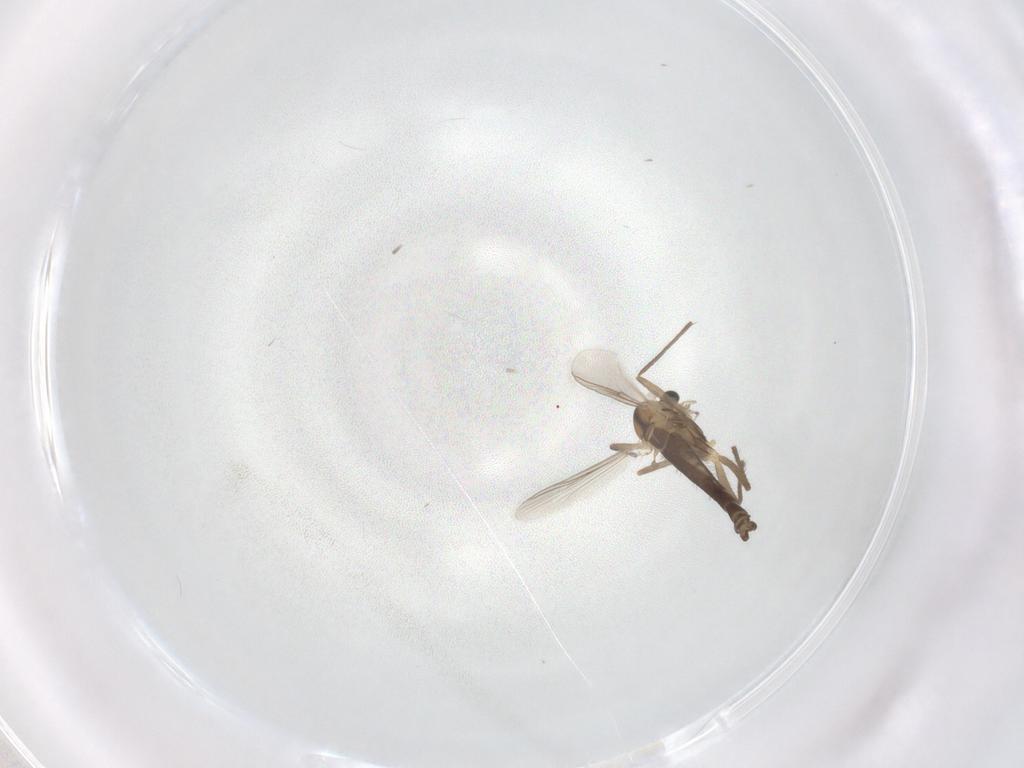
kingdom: Animalia
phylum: Arthropoda
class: Insecta
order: Diptera
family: Chironomidae
